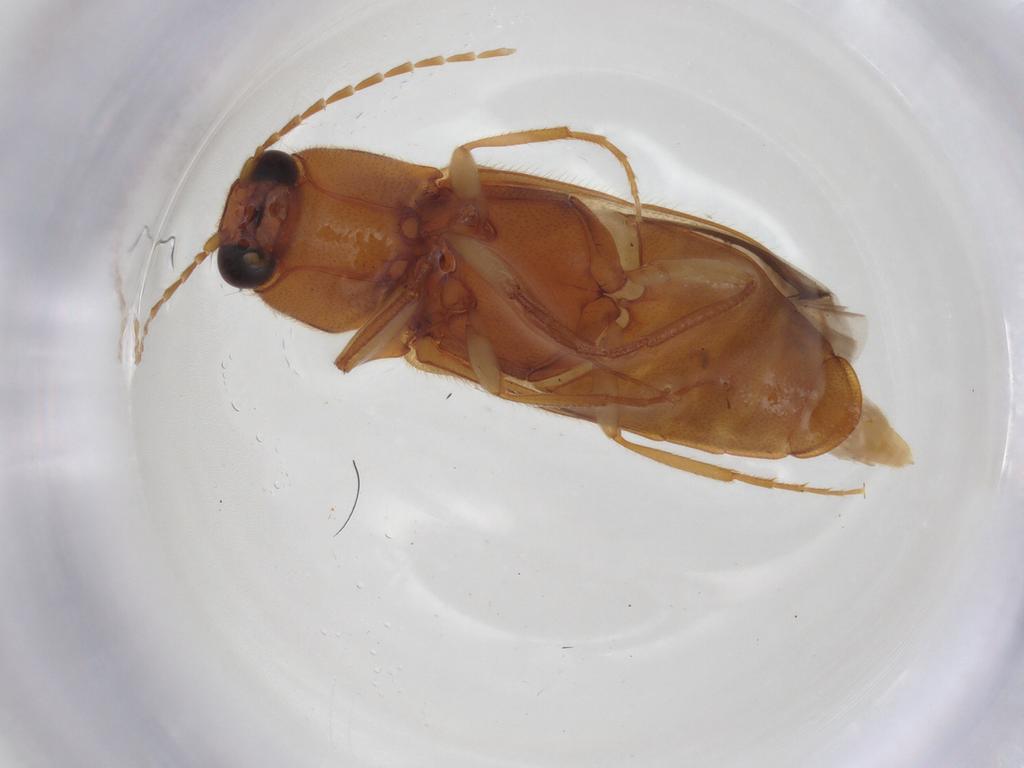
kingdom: Animalia
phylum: Arthropoda
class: Insecta
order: Coleoptera
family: Elateridae
